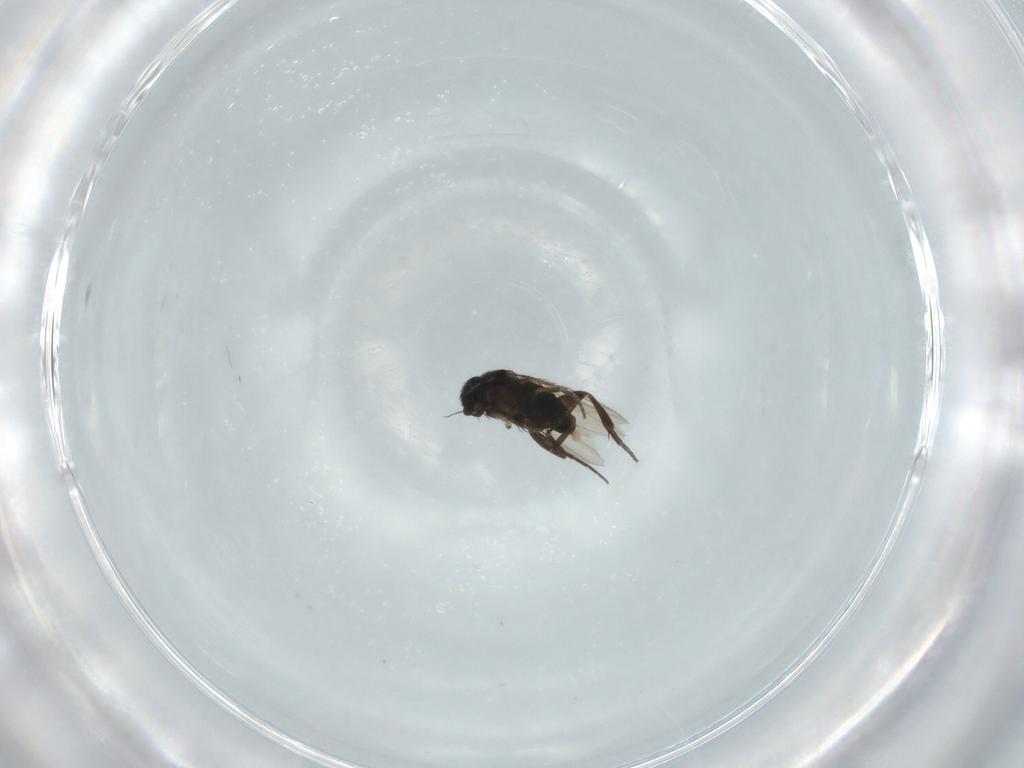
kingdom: Animalia
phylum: Arthropoda
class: Insecta
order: Diptera
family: Phoridae
